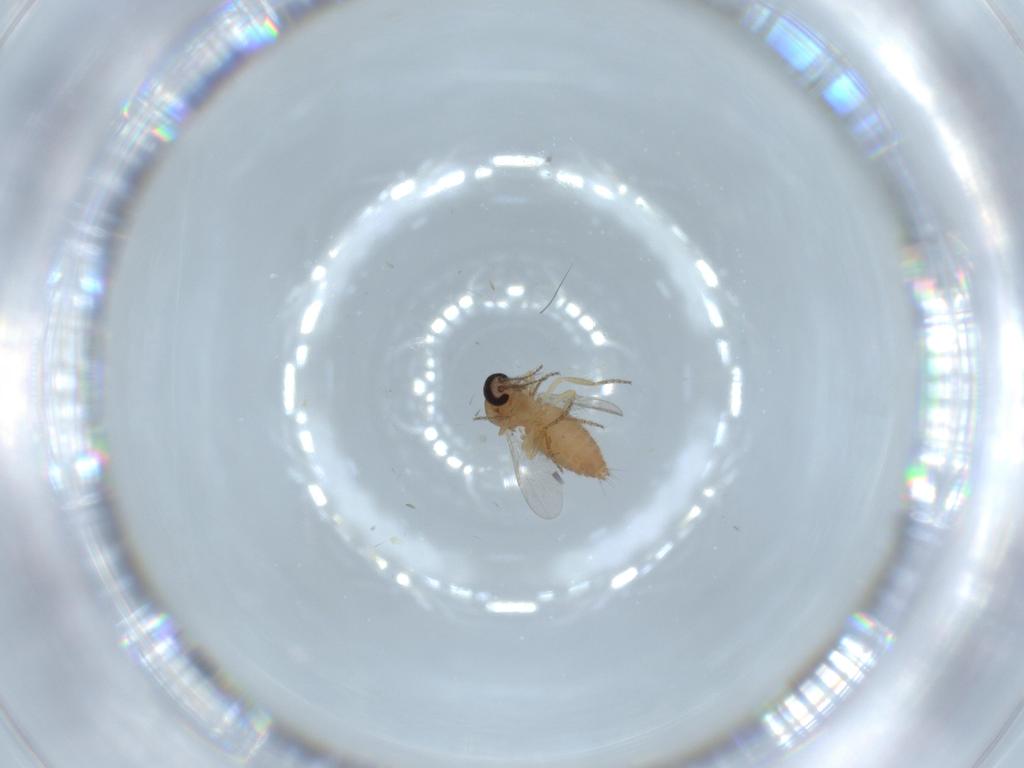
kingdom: Animalia
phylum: Arthropoda
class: Insecta
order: Diptera
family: Ceratopogonidae
